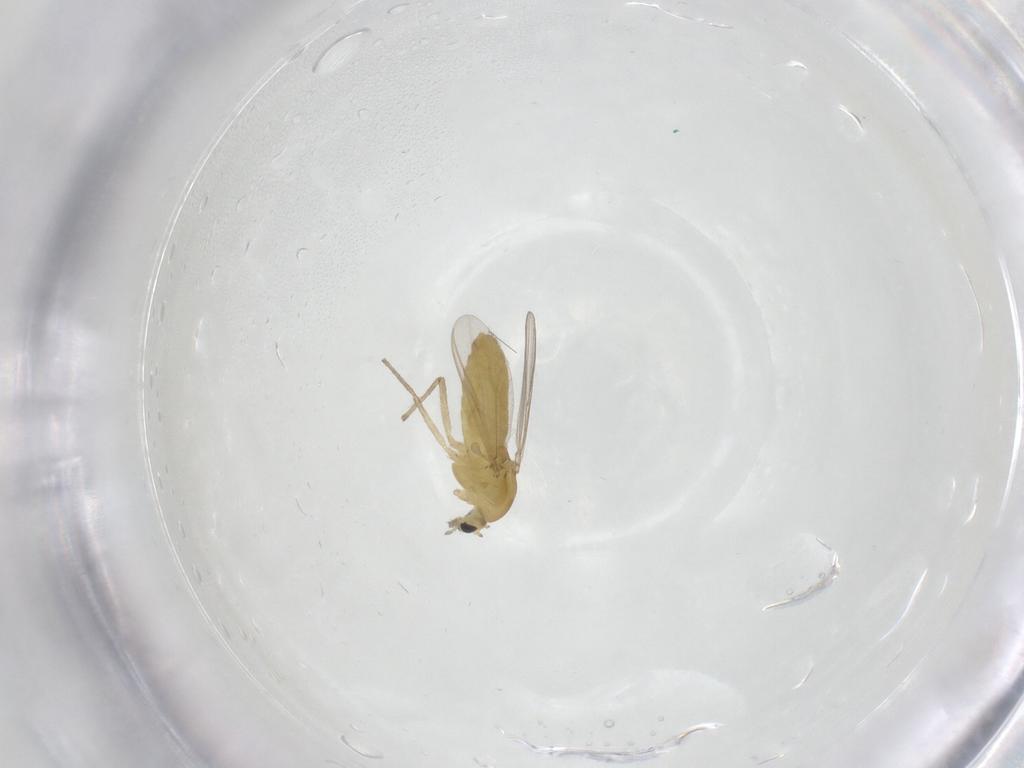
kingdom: Animalia
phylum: Arthropoda
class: Insecta
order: Diptera
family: Chironomidae
